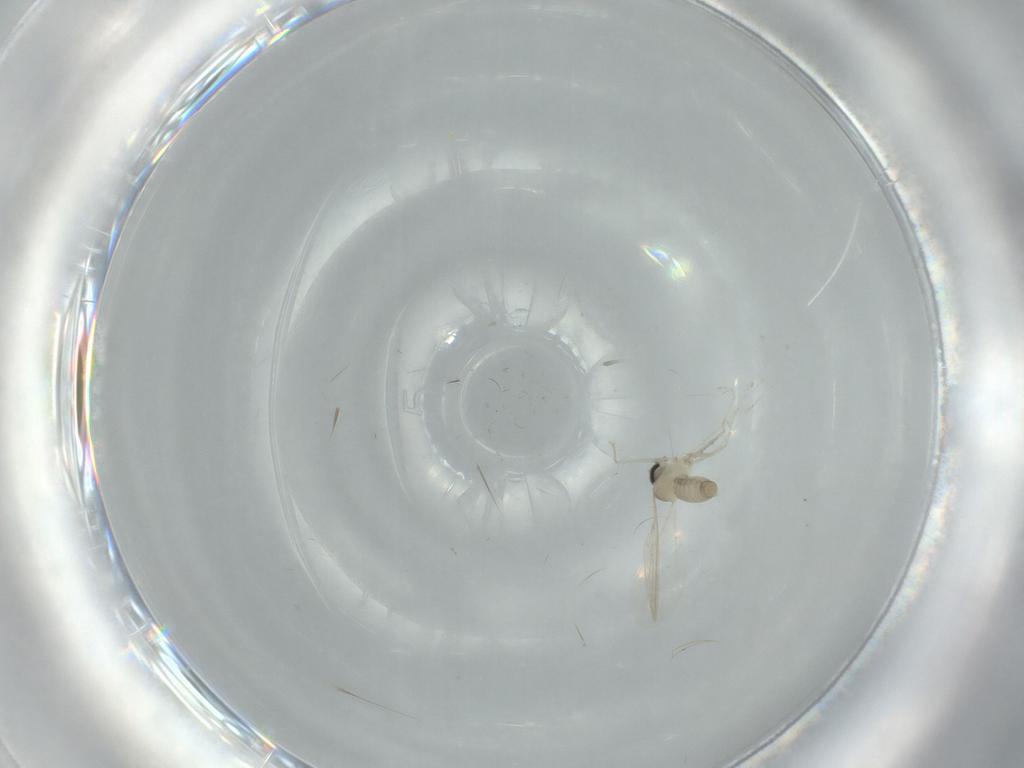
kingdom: Animalia
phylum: Arthropoda
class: Insecta
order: Diptera
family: Cecidomyiidae
